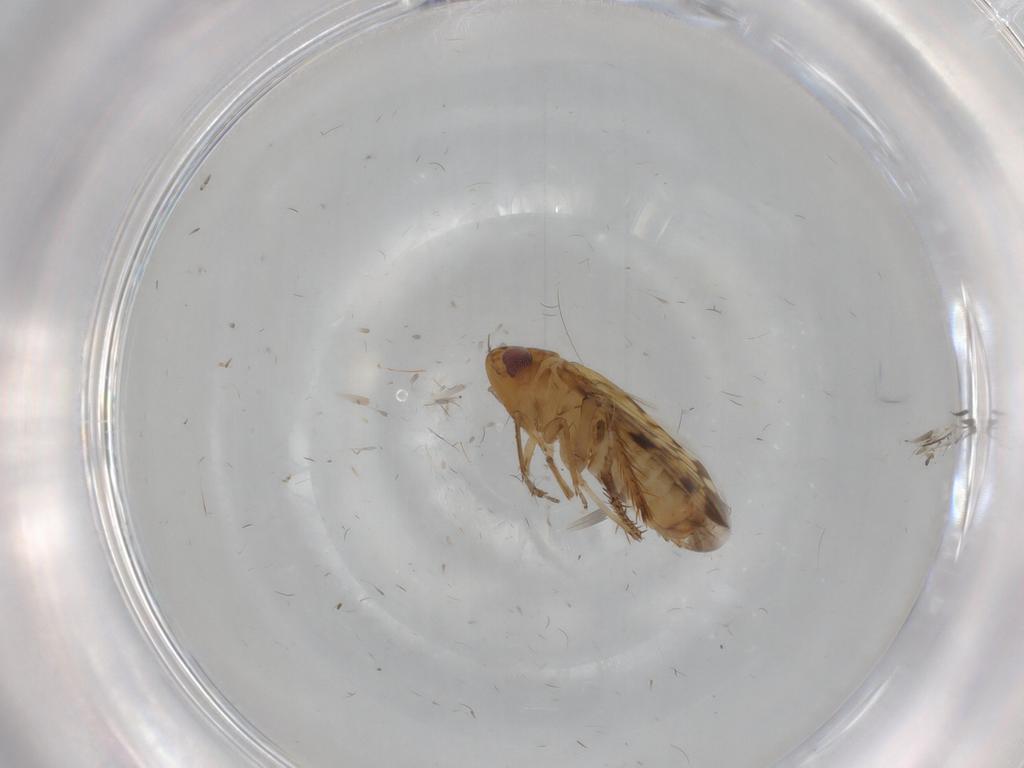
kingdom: Animalia
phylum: Arthropoda
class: Insecta
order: Hemiptera
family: Cicadellidae
